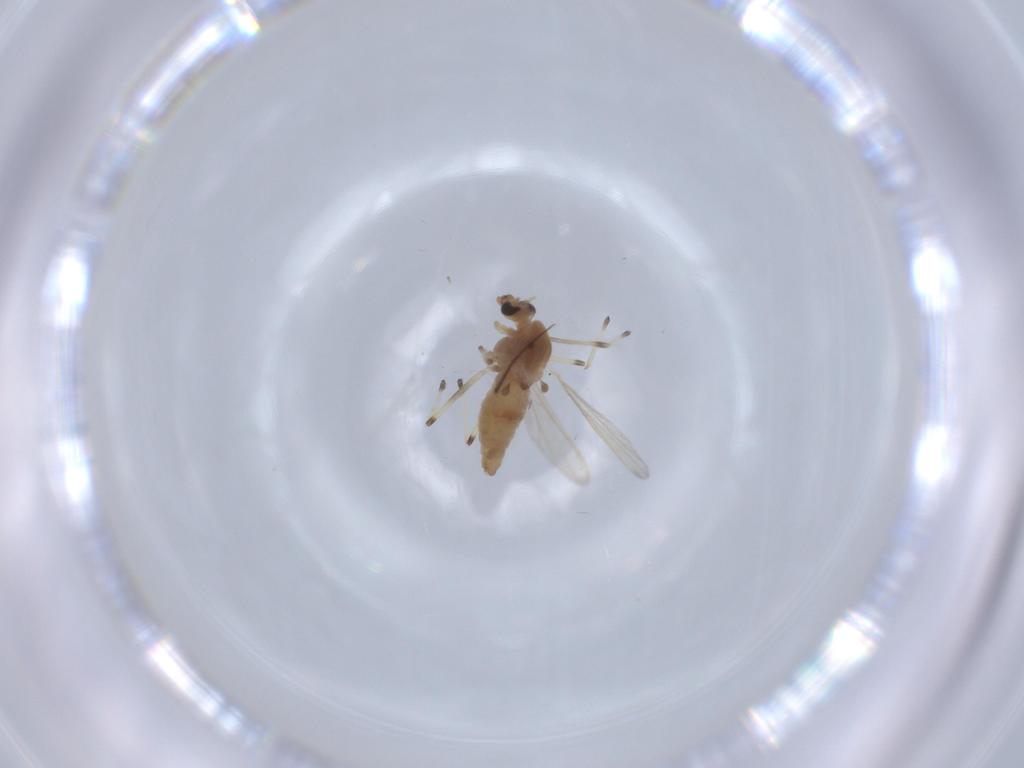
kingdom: Animalia
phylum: Arthropoda
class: Insecta
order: Diptera
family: Chironomidae
